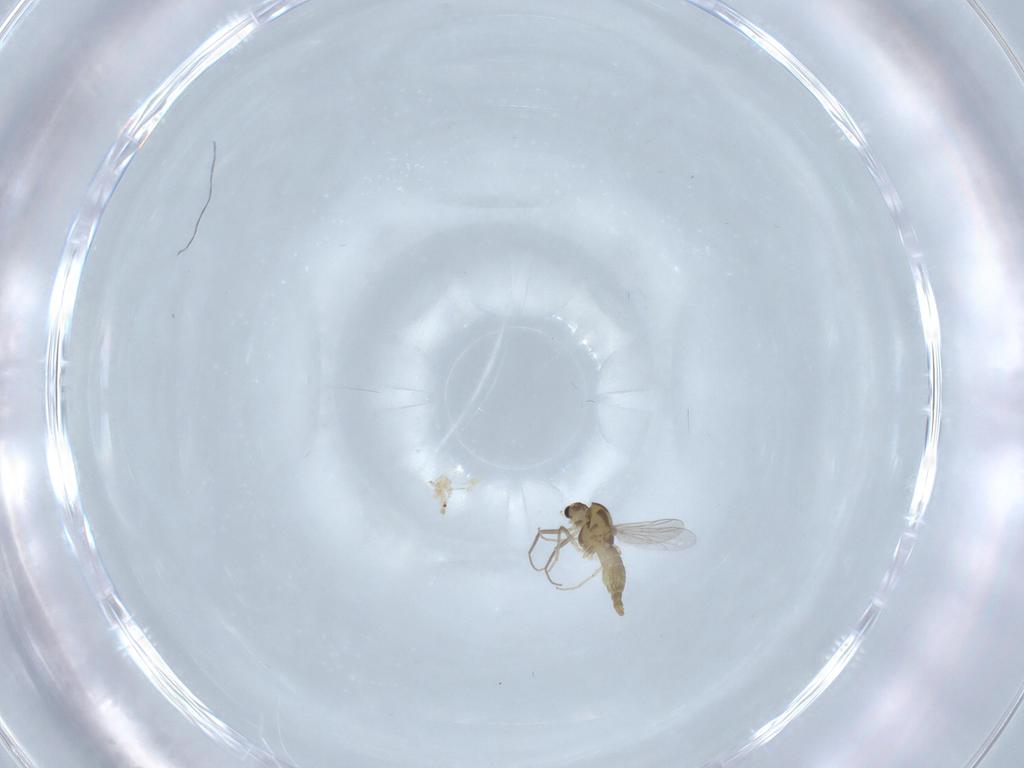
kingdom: Animalia
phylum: Arthropoda
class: Insecta
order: Diptera
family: Chironomidae
